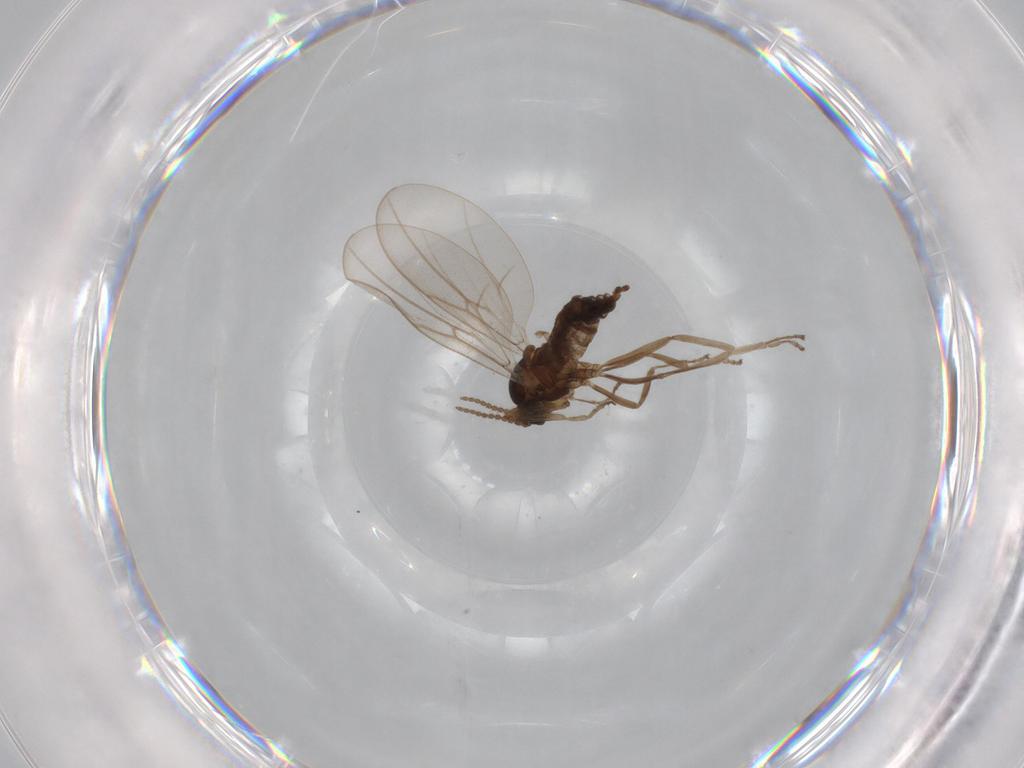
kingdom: Animalia
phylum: Arthropoda
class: Insecta
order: Diptera
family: Cecidomyiidae
